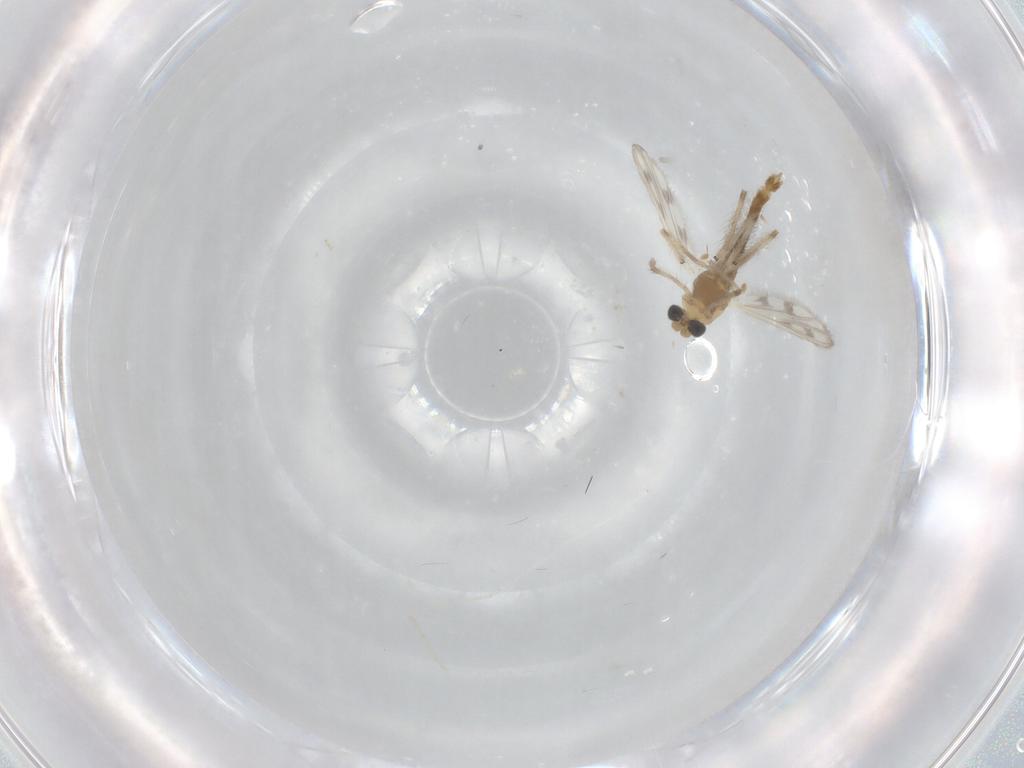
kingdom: Animalia
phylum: Arthropoda
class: Insecta
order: Diptera
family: Cecidomyiidae
